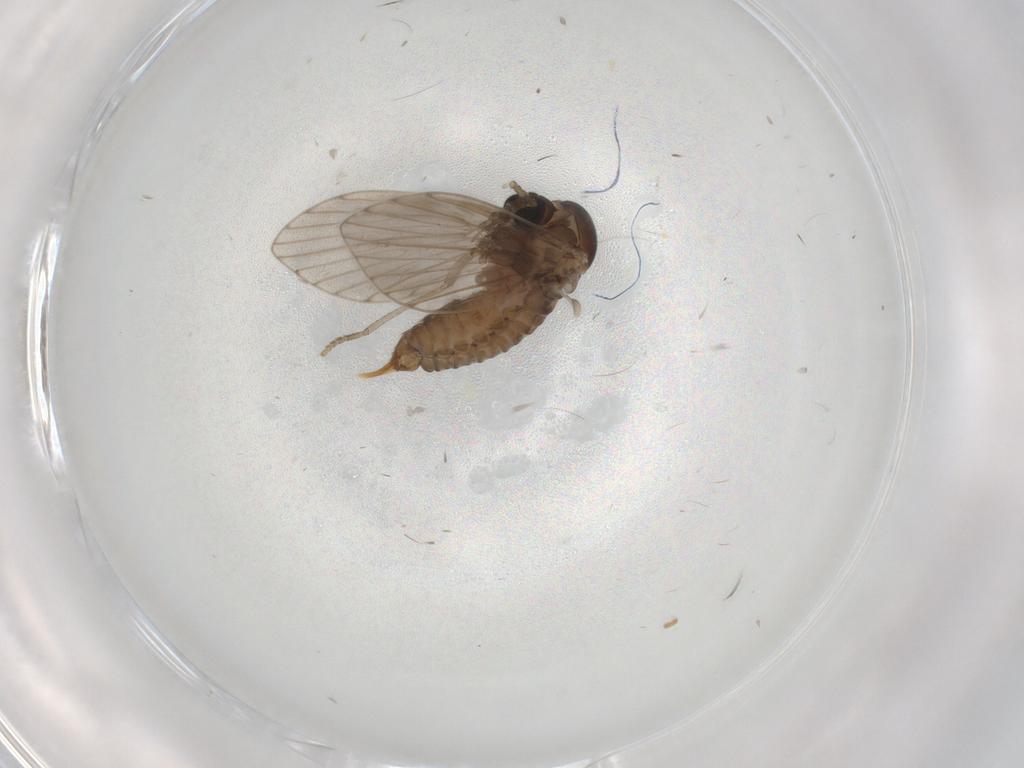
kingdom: Animalia
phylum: Arthropoda
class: Insecta
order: Diptera
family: Psychodidae
